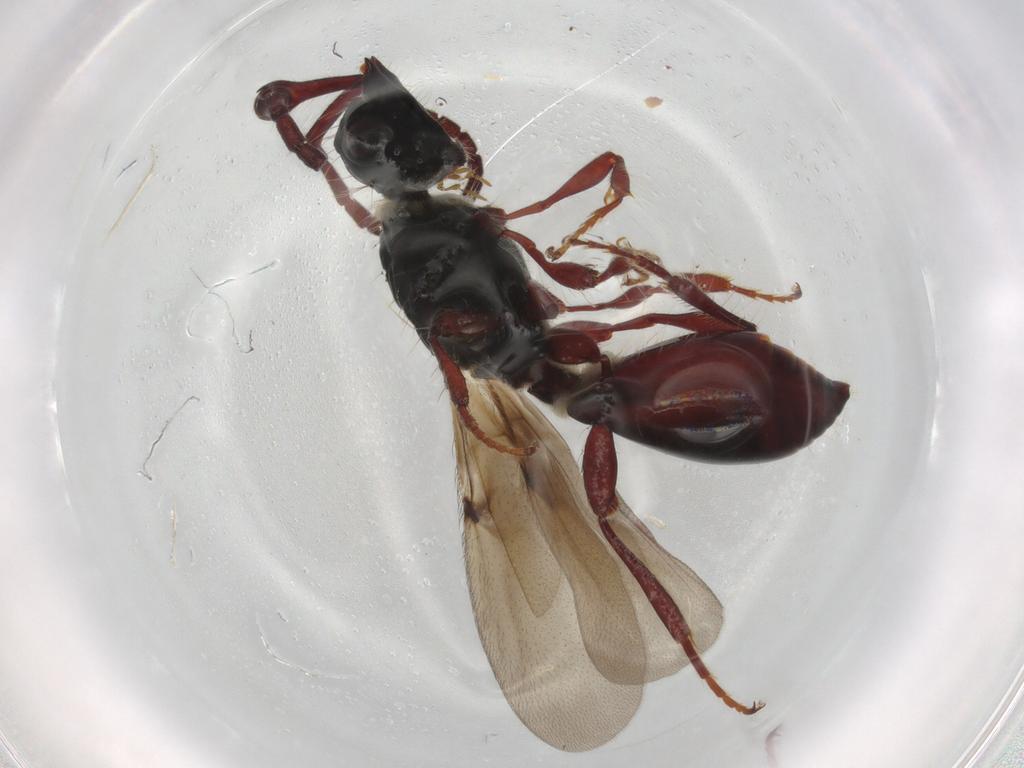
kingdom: Animalia
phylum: Arthropoda
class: Insecta
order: Hymenoptera
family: Diapriidae
